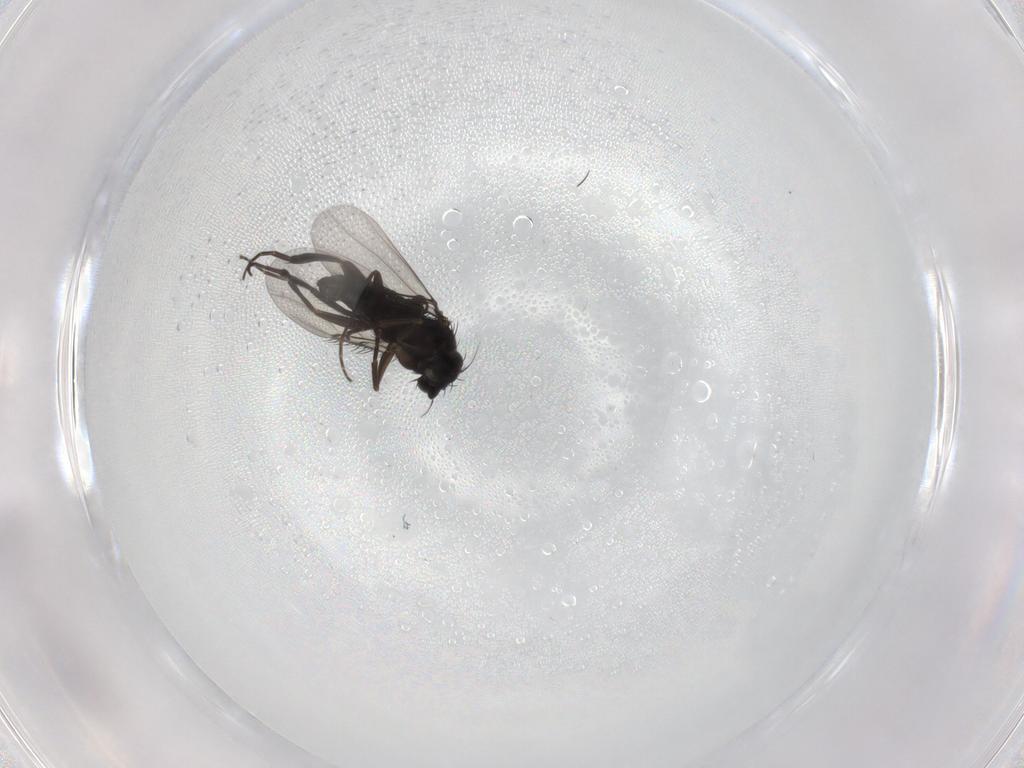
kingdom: Animalia
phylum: Arthropoda
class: Insecta
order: Diptera
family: Phoridae
